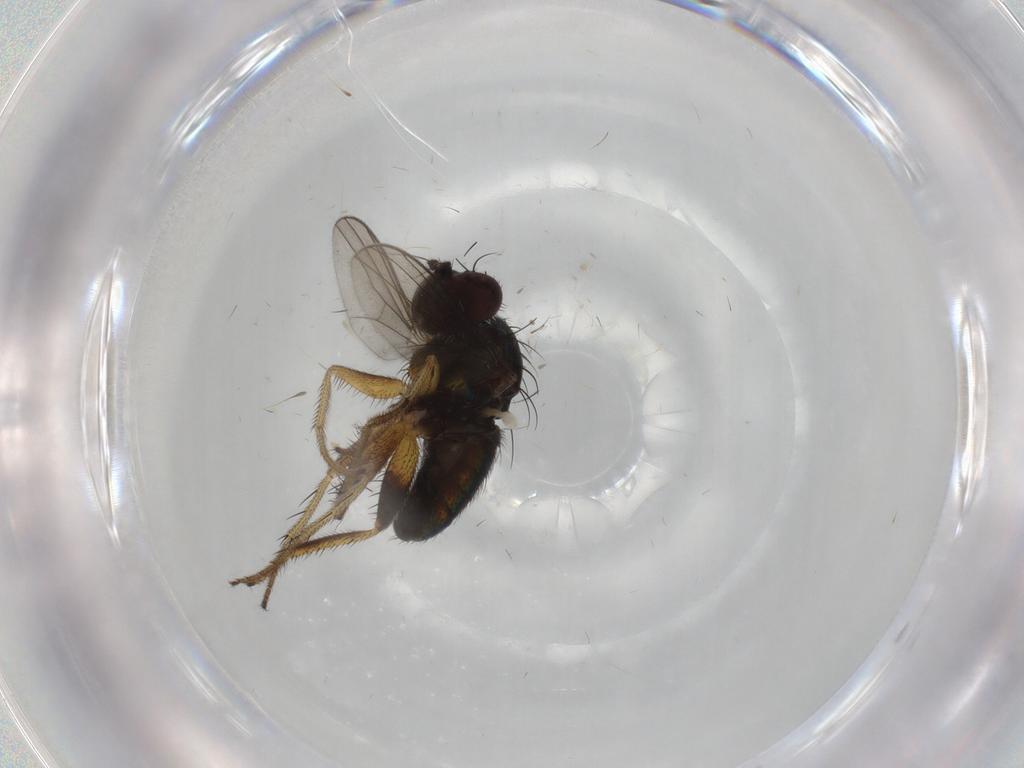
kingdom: Animalia
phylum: Arthropoda
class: Insecta
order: Diptera
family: Dolichopodidae
